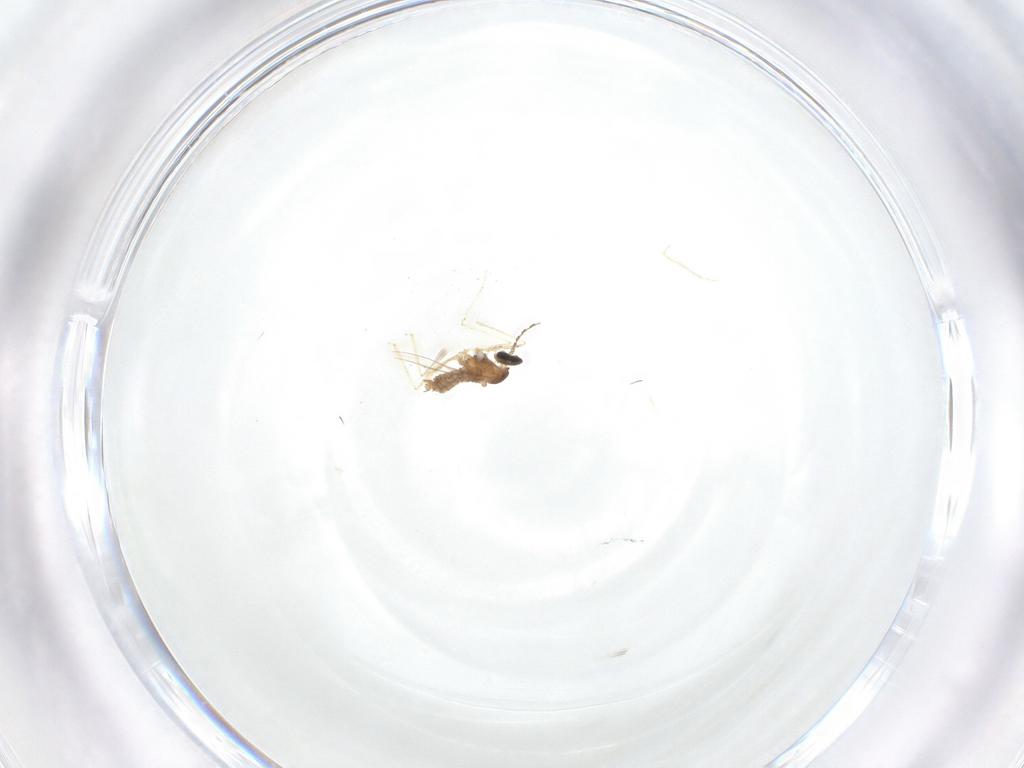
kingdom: Animalia
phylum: Arthropoda
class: Insecta
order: Diptera
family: Cecidomyiidae
